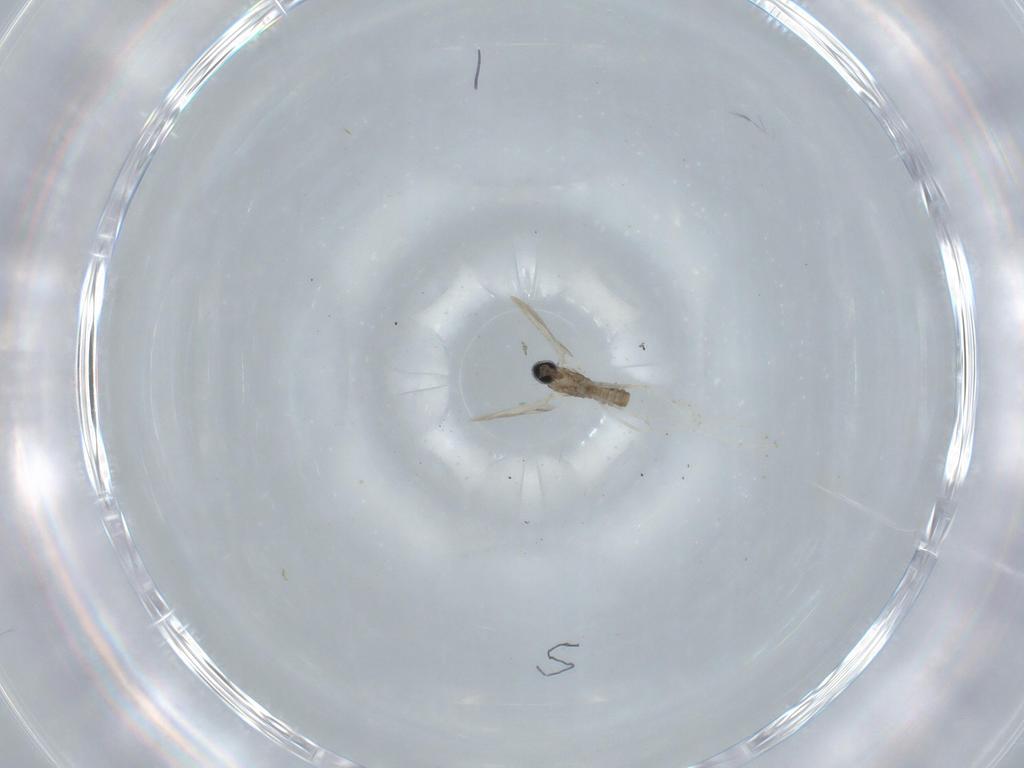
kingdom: Animalia
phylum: Arthropoda
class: Insecta
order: Diptera
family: Cecidomyiidae
